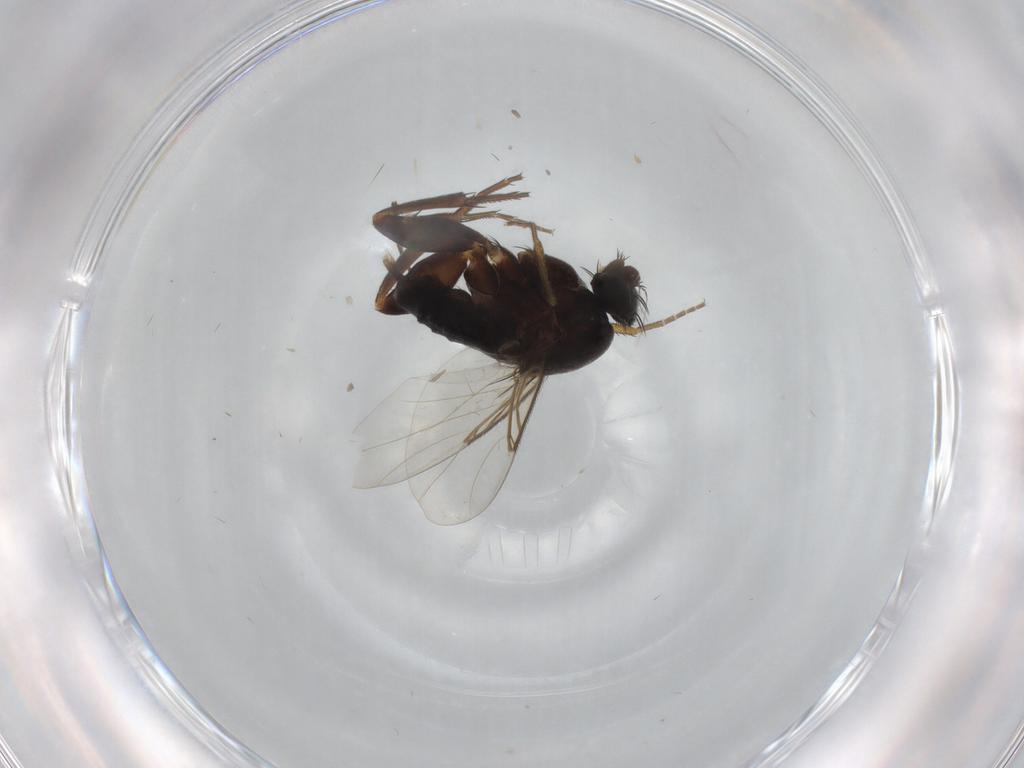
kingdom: Animalia
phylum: Arthropoda
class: Insecta
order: Diptera
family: Phoridae
